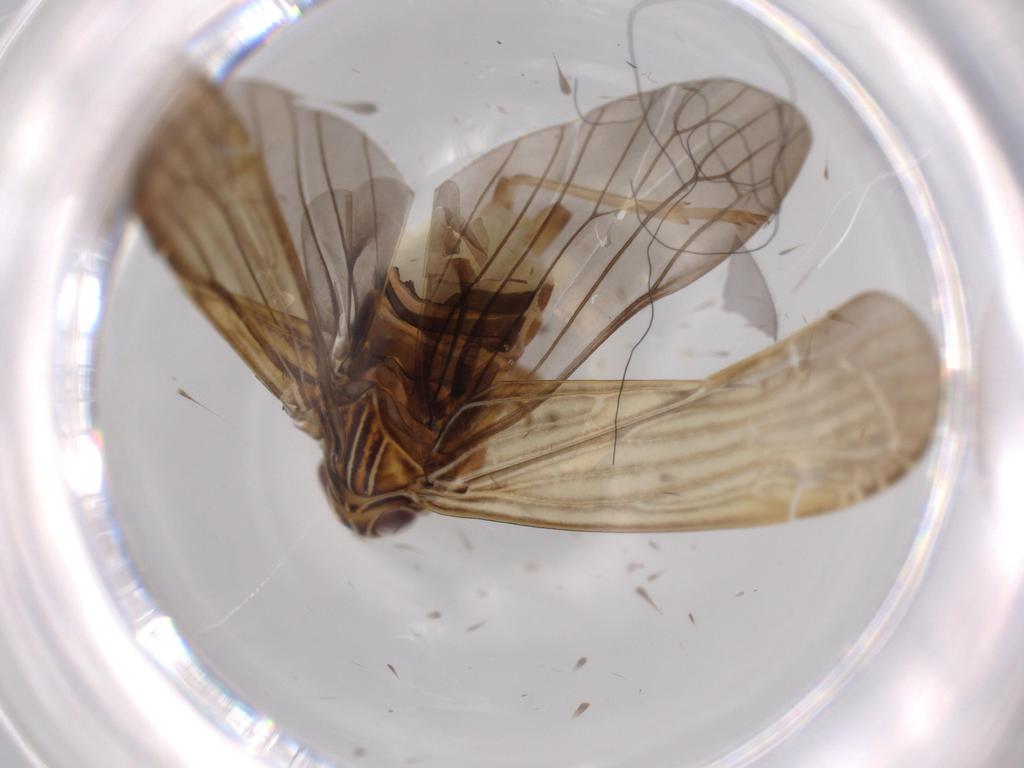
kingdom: Animalia
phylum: Arthropoda
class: Insecta
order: Hemiptera
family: Achilidae
